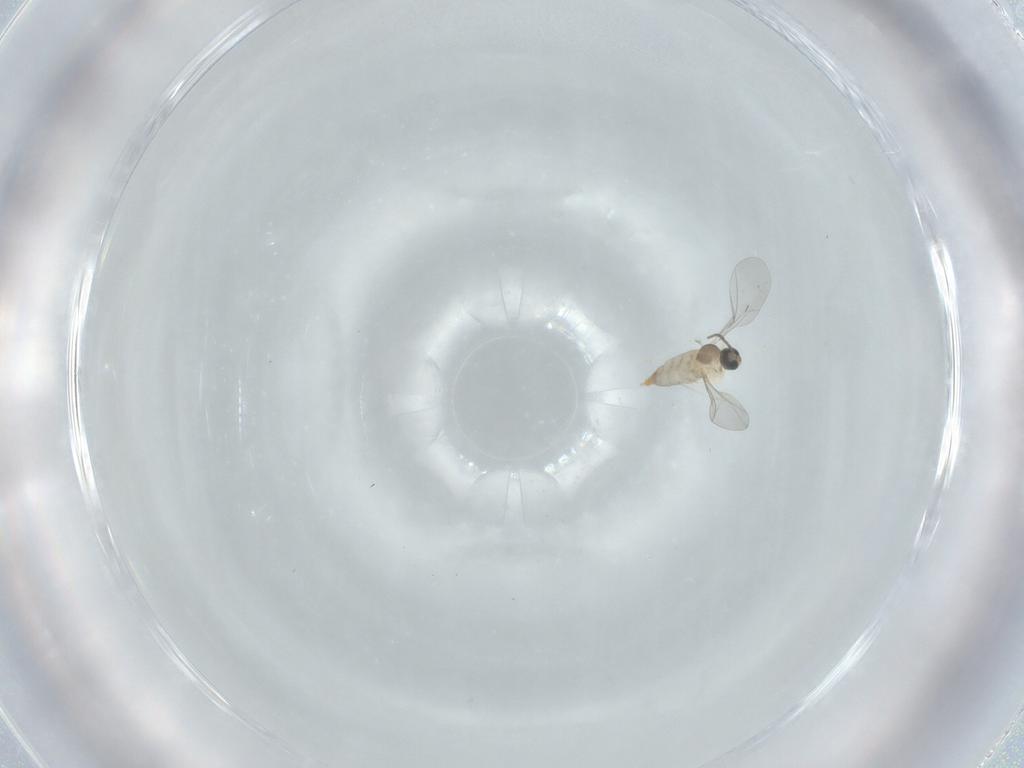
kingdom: Animalia
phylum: Arthropoda
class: Insecta
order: Diptera
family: Cecidomyiidae
